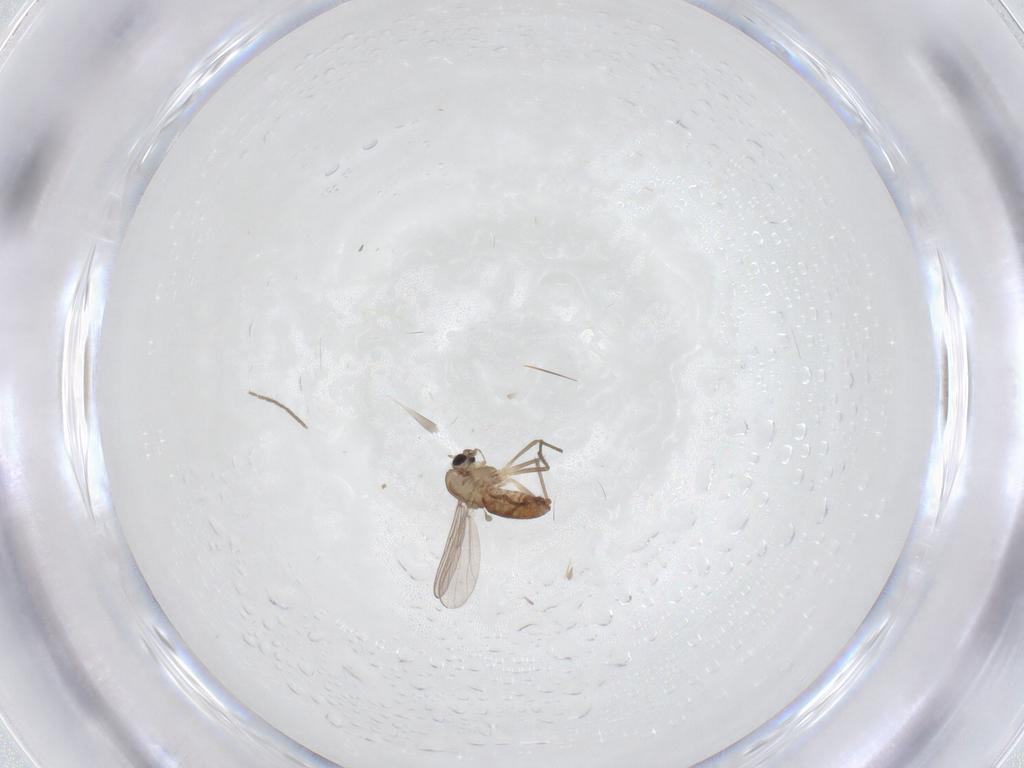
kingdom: Animalia
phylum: Arthropoda
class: Insecta
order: Diptera
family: Chironomidae
